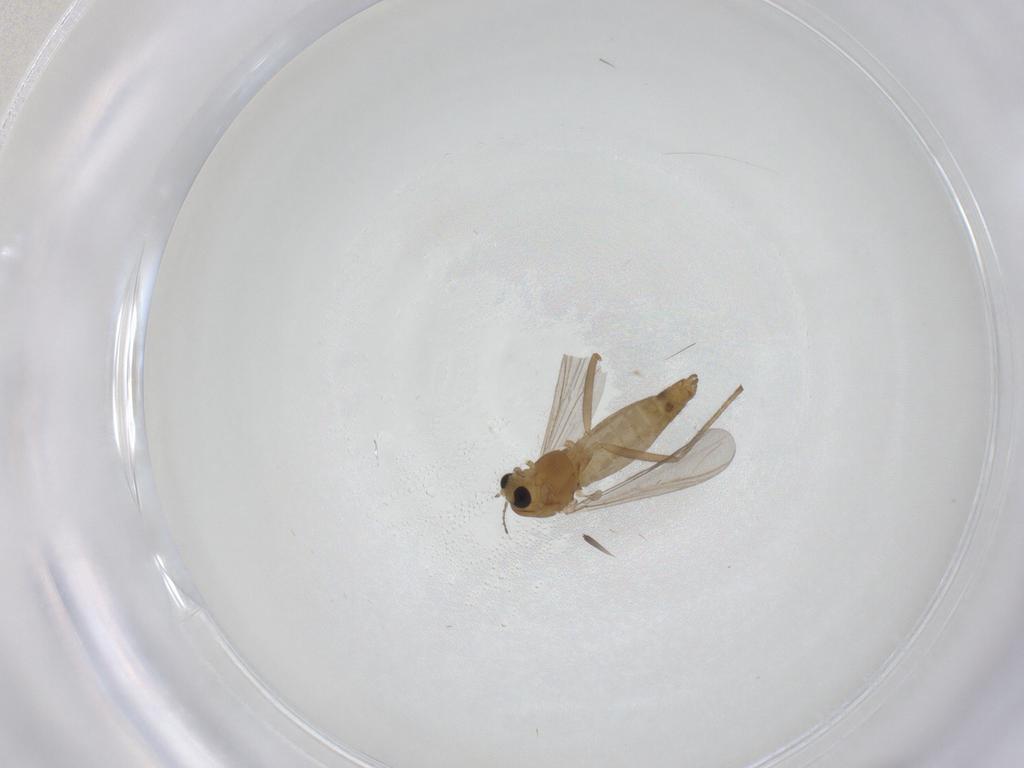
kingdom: Animalia
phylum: Arthropoda
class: Insecta
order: Diptera
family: Chironomidae
